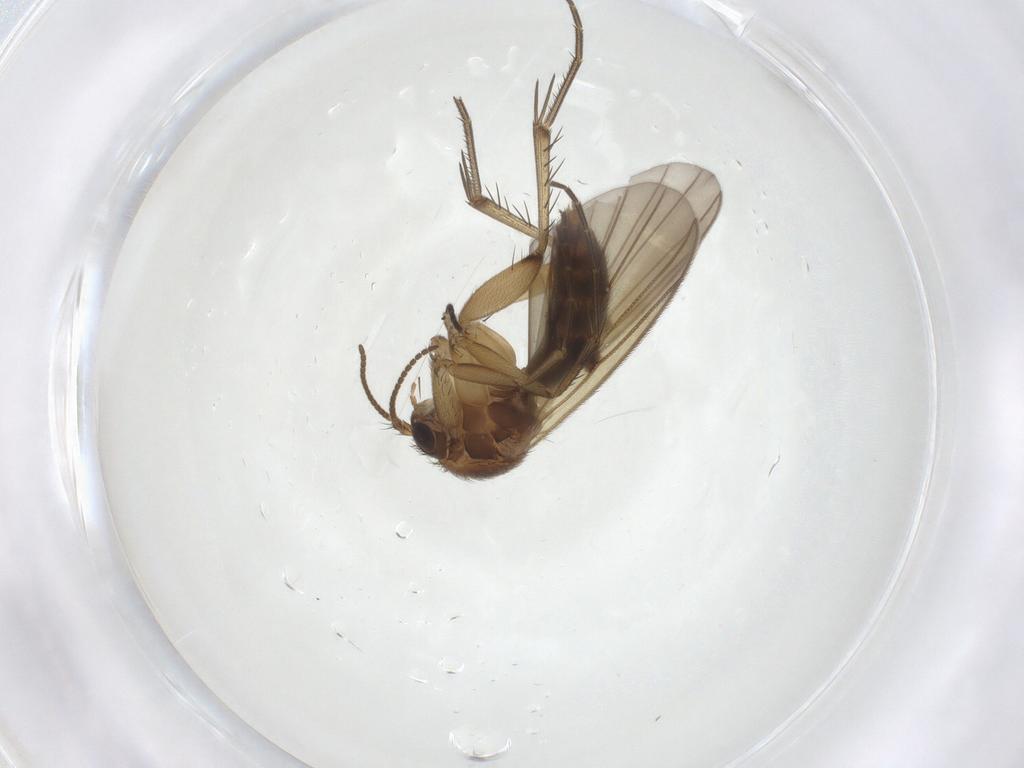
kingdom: Animalia
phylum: Arthropoda
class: Insecta
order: Diptera
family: Mycetophilidae
